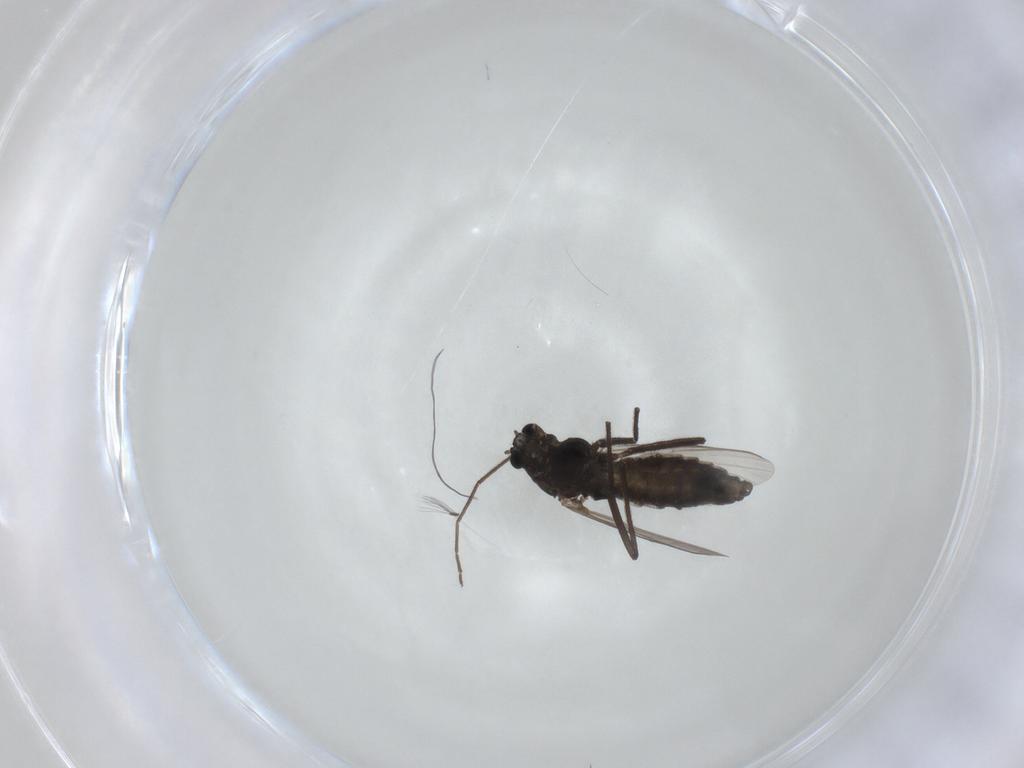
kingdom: Animalia
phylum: Arthropoda
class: Insecta
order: Diptera
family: Chironomidae
